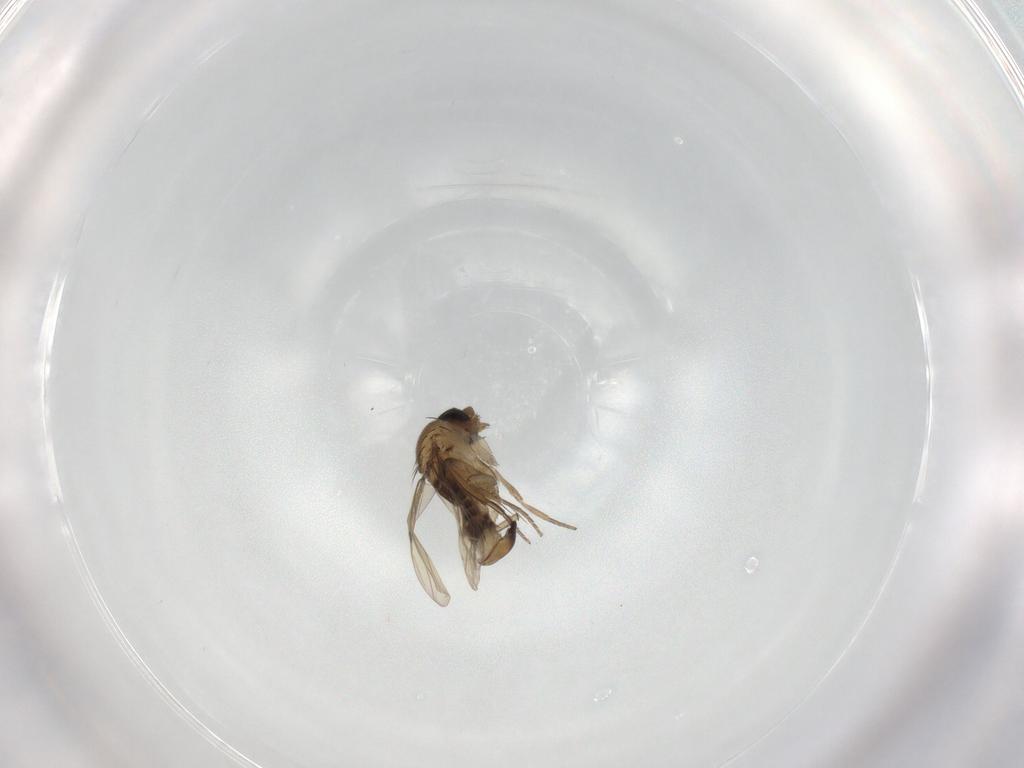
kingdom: Animalia
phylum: Arthropoda
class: Insecta
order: Diptera
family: Phoridae
